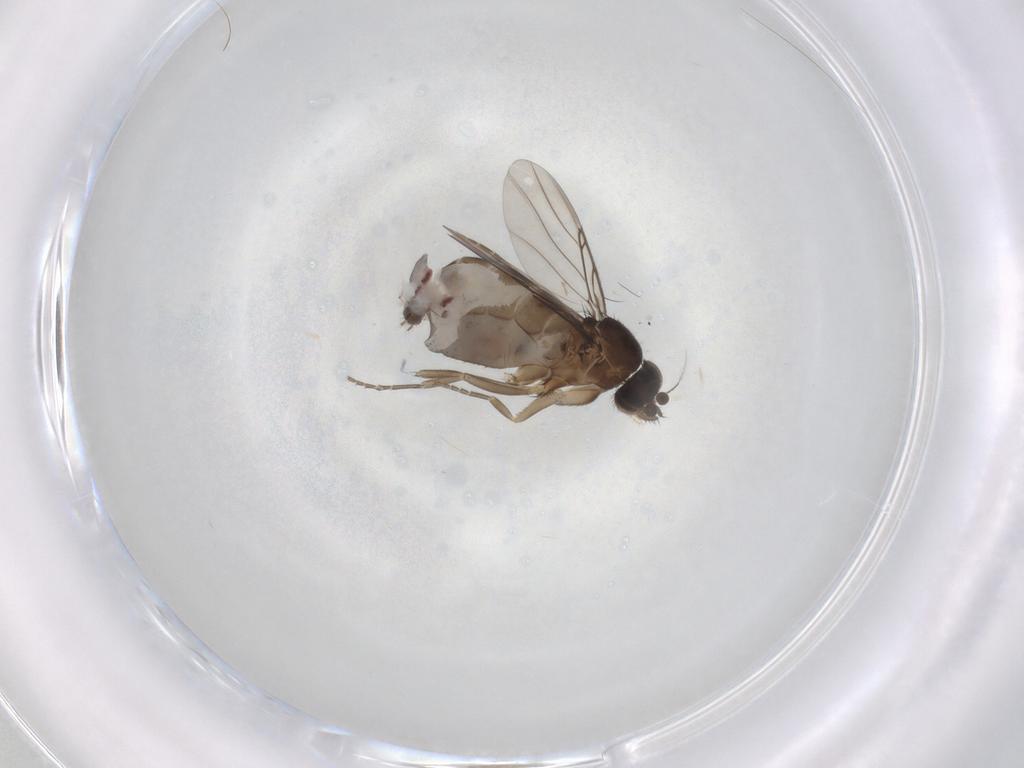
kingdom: Animalia
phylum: Arthropoda
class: Insecta
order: Diptera
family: Phoridae
